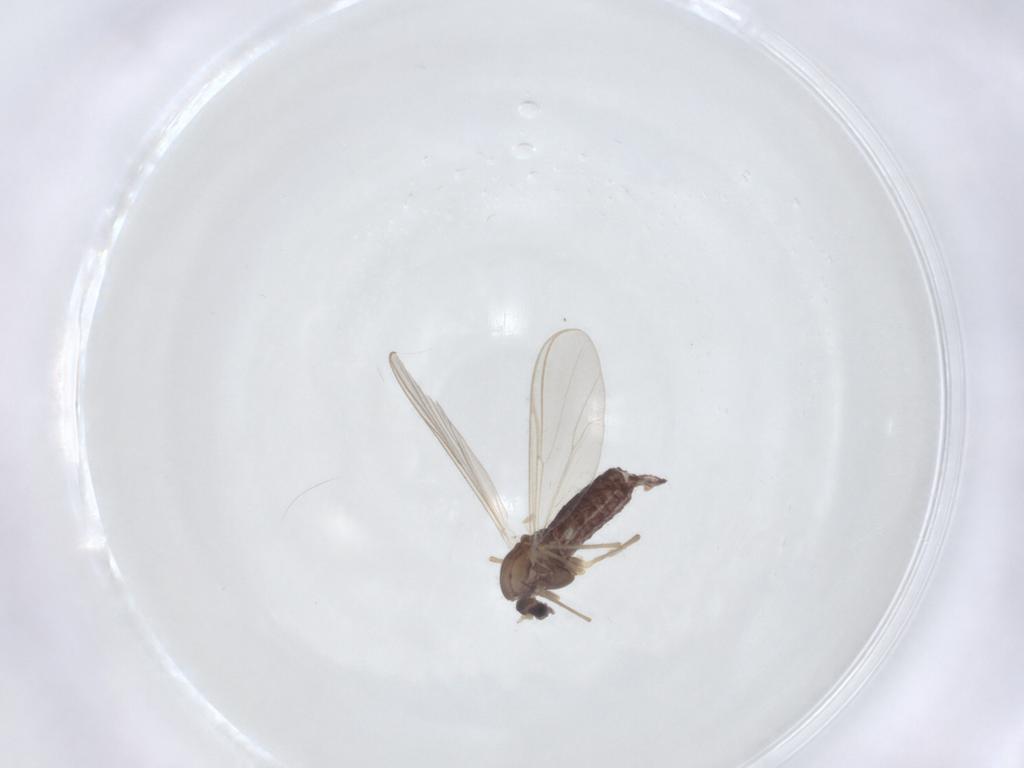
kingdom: Animalia
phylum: Arthropoda
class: Insecta
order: Diptera
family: Chironomidae
